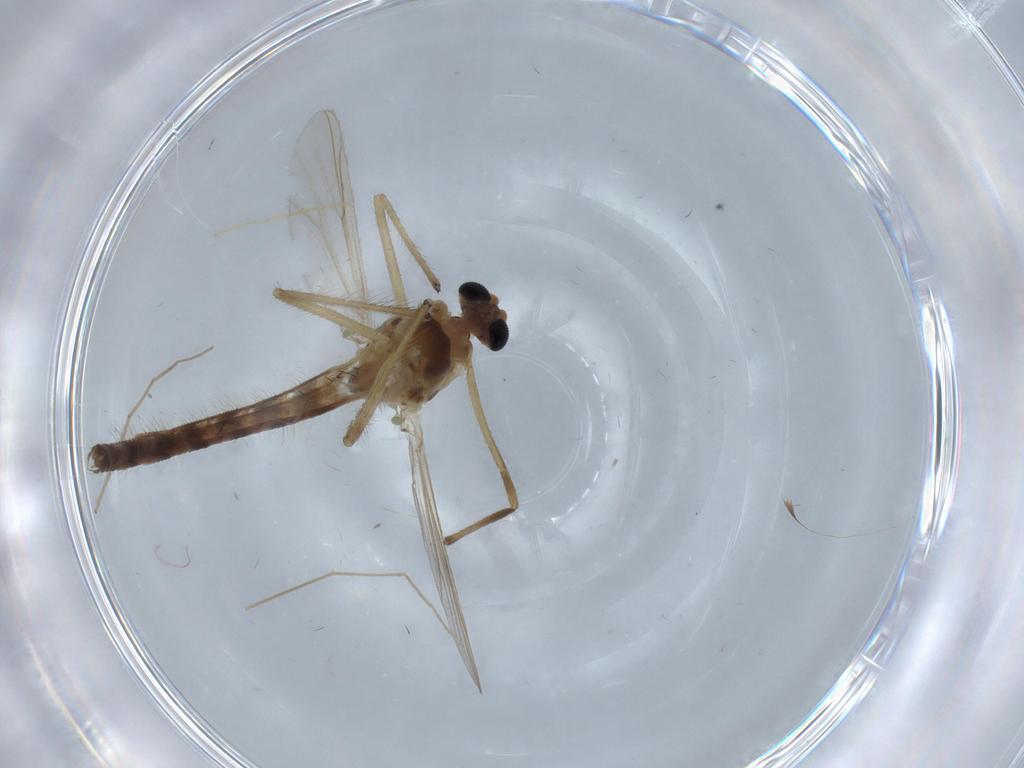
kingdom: Animalia
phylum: Arthropoda
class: Insecta
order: Diptera
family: Chironomidae
